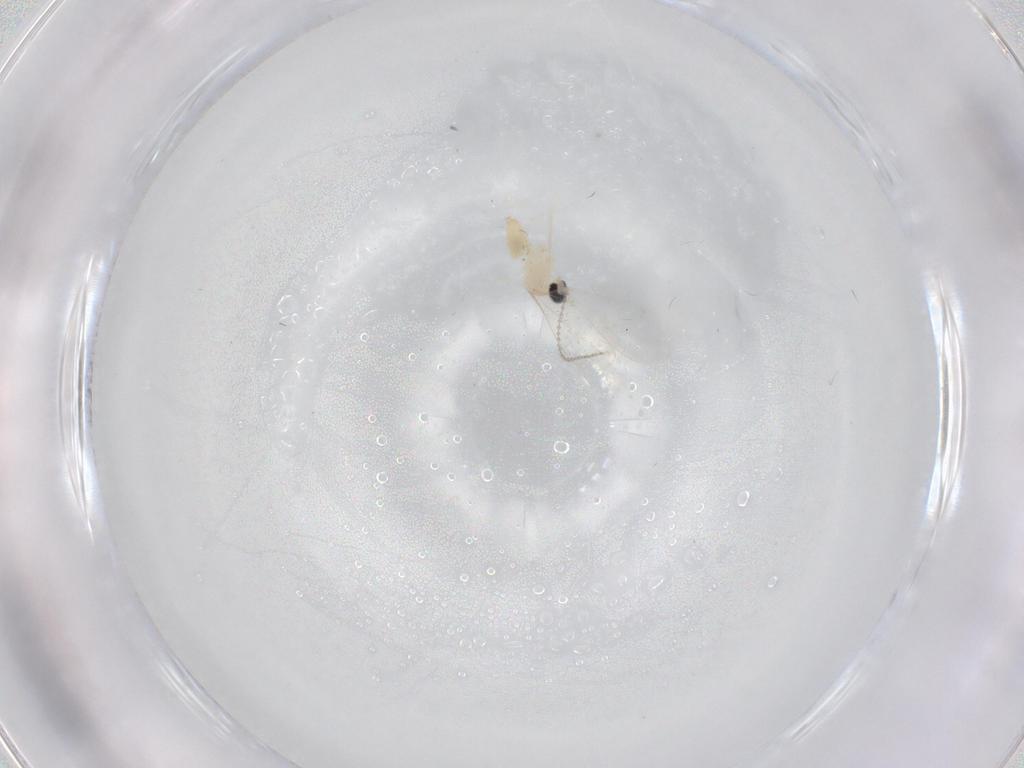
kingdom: Animalia
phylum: Arthropoda
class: Insecta
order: Diptera
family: Cecidomyiidae
